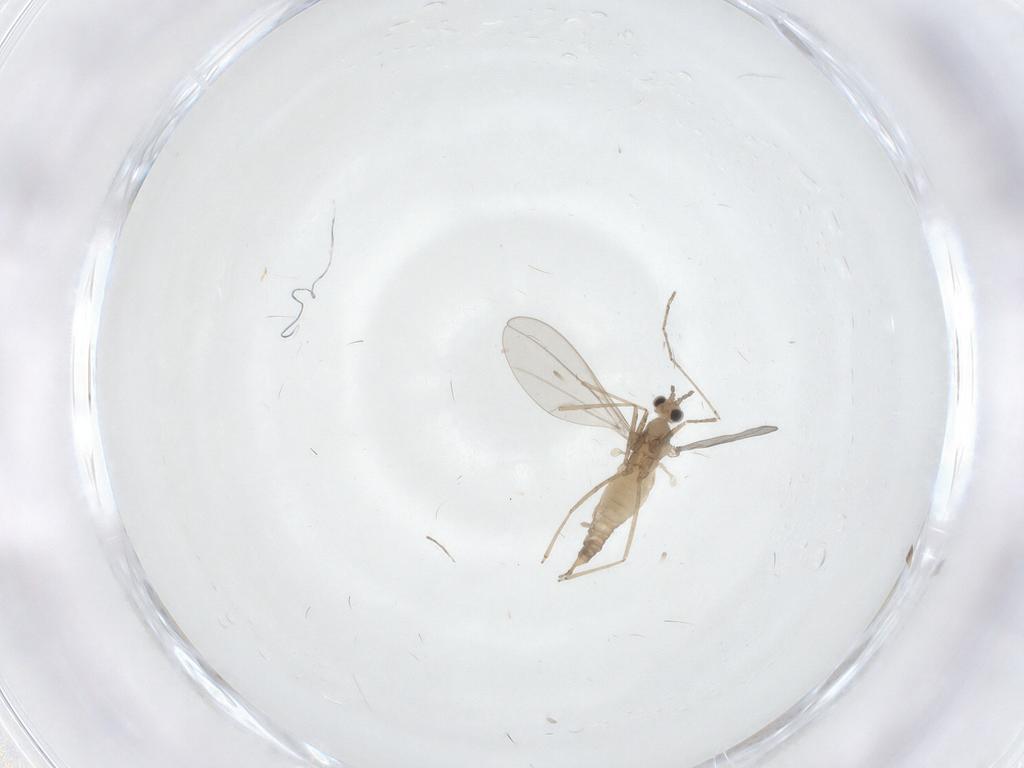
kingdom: Animalia
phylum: Arthropoda
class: Insecta
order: Diptera
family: Cecidomyiidae
